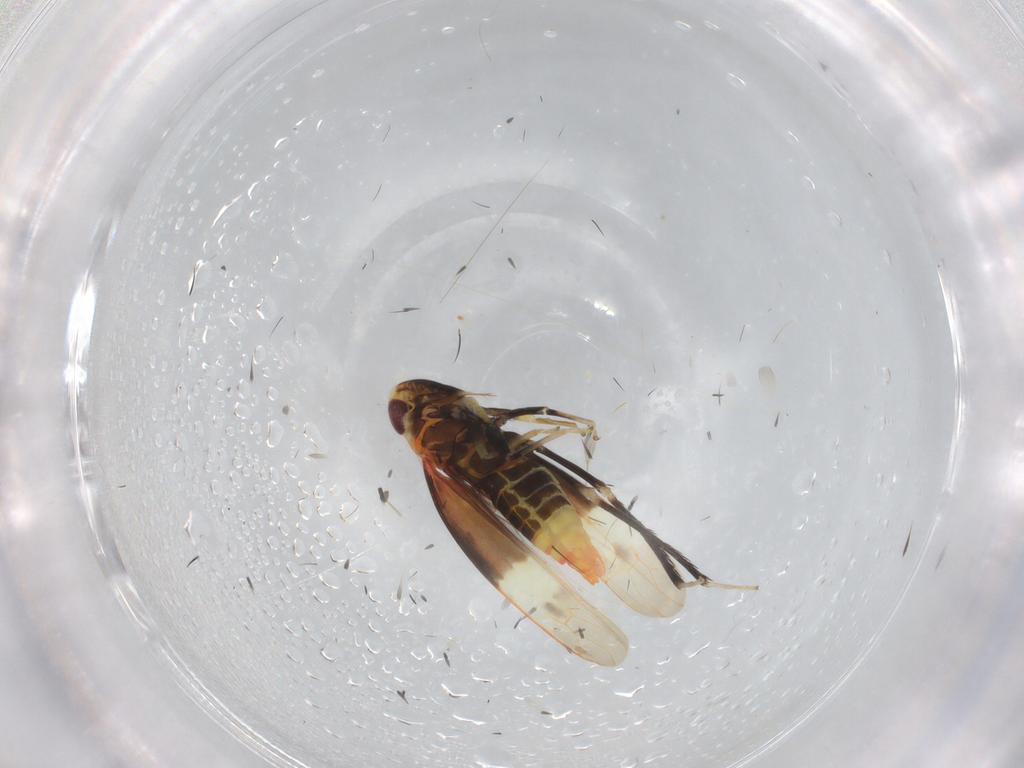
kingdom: Animalia
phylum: Arthropoda
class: Insecta
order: Hemiptera
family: Cicadellidae
